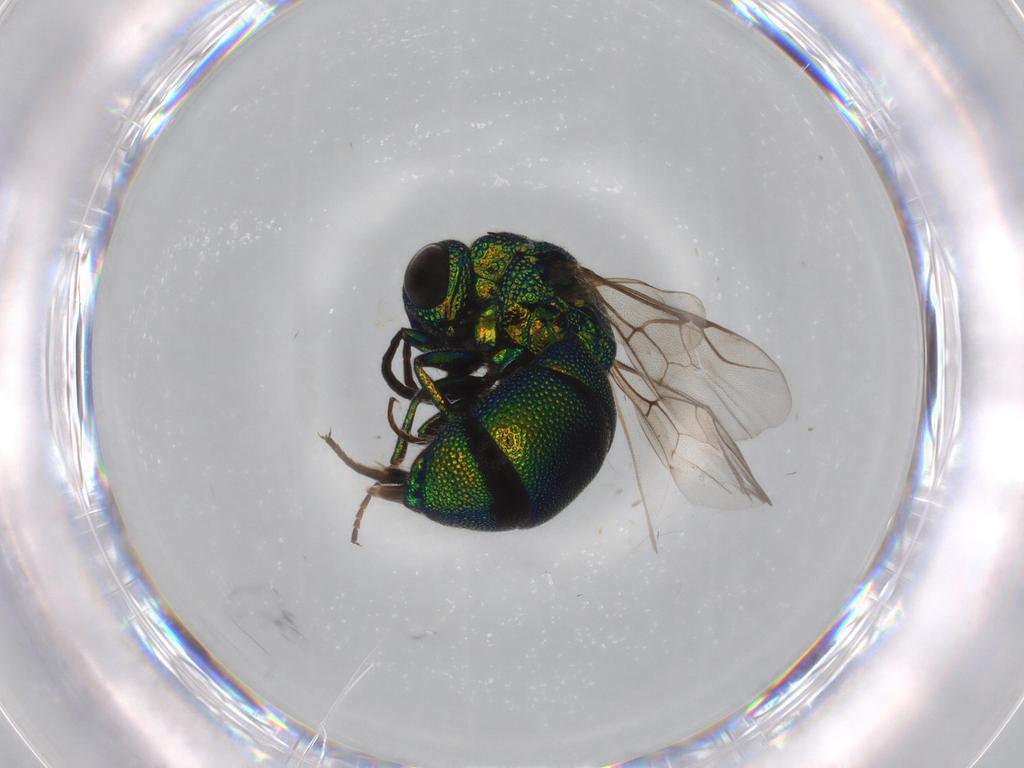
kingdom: Animalia
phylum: Arthropoda
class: Insecta
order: Hymenoptera
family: Chrysididae
